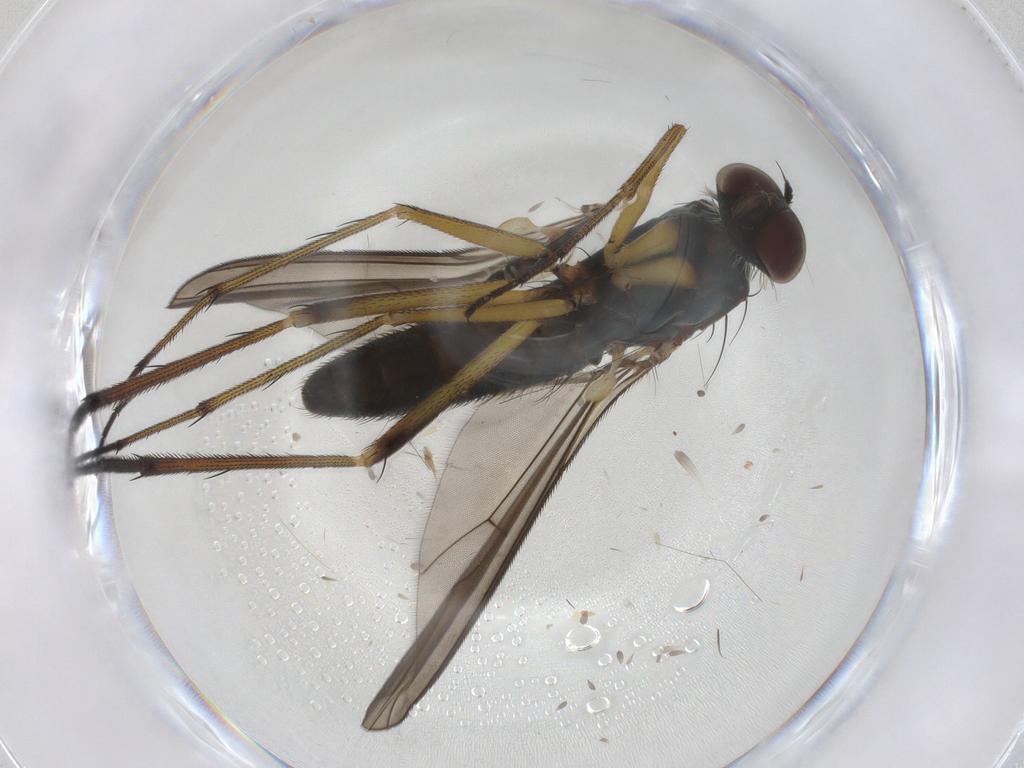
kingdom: Animalia
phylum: Arthropoda
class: Insecta
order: Diptera
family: Dolichopodidae
